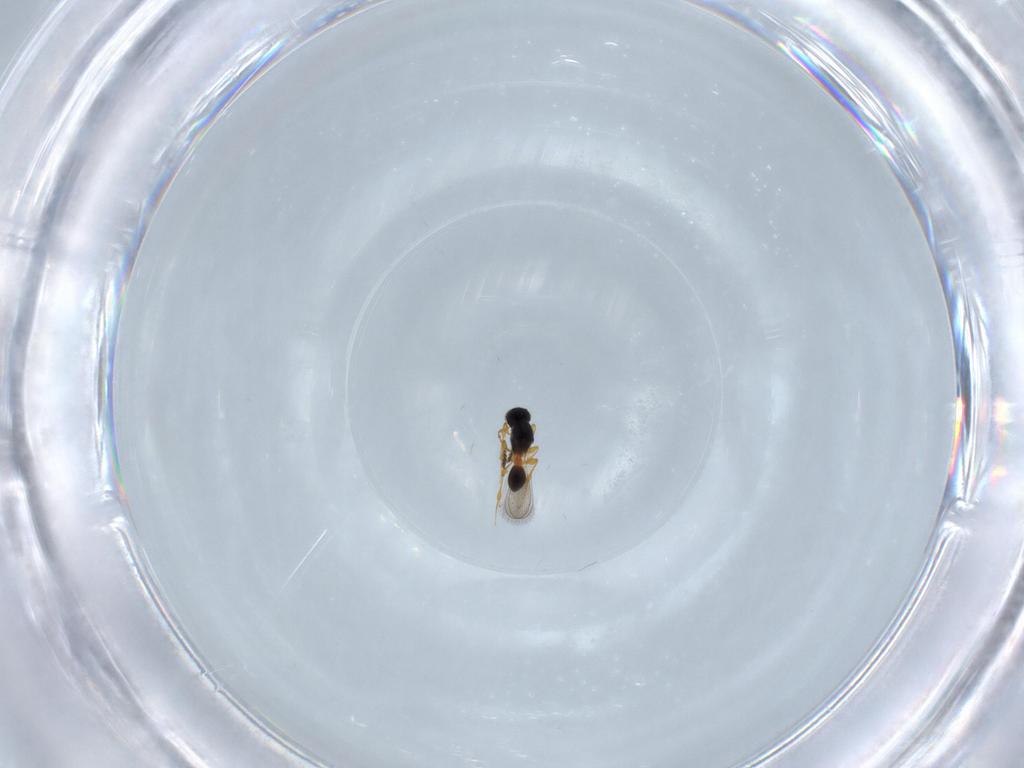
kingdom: Animalia
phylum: Arthropoda
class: Insecta
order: Hymenoptera
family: Platygastridae
